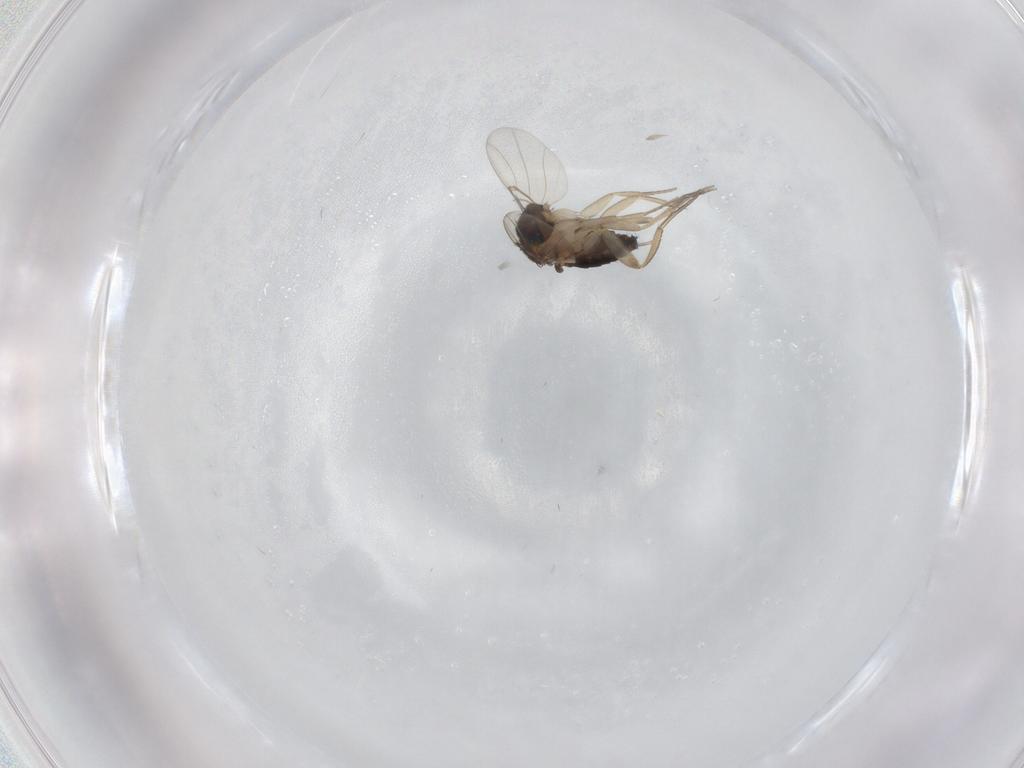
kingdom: Animalia
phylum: Arthropoda
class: Insecta
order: Diptera
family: Phoridae
